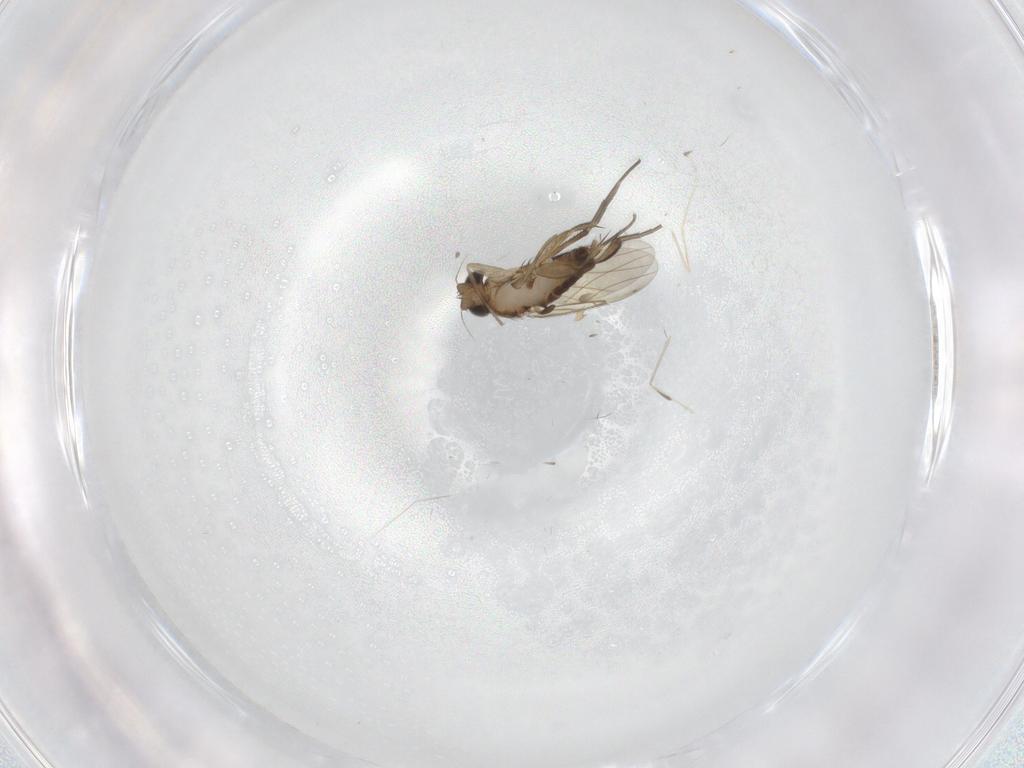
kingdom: Animalia
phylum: Arthropoda
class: Insecta
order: Diptera
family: Phoridae
